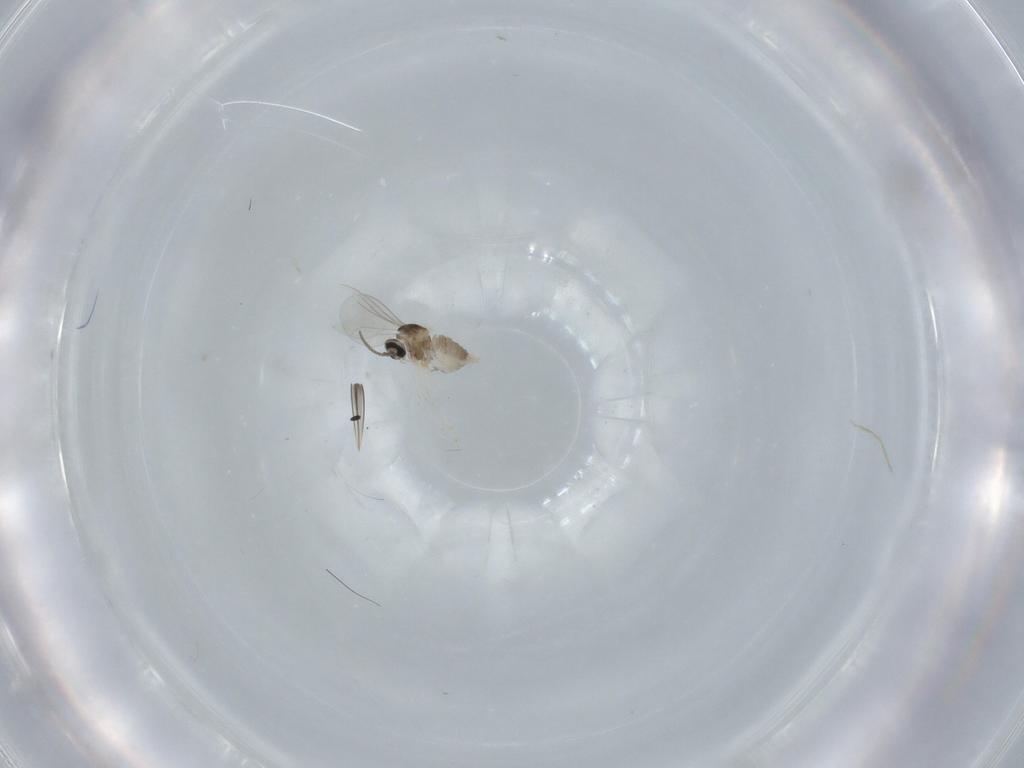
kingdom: Animalia
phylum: Arthropoda
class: Insecta
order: Diptera
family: Cecidomyiidae
